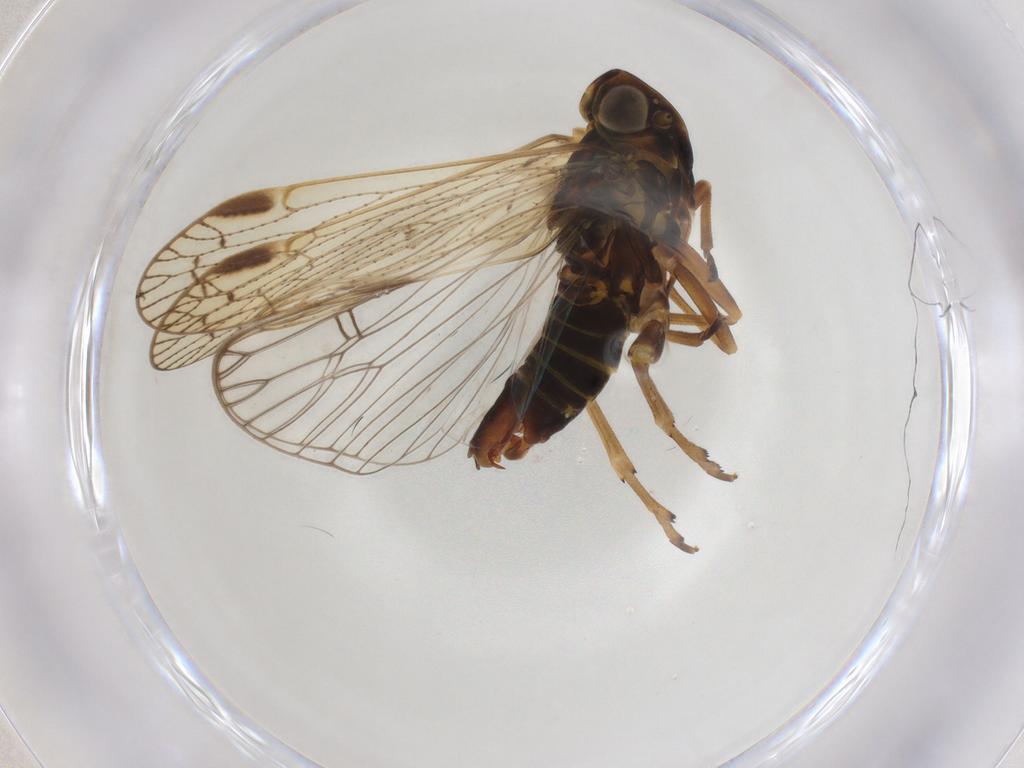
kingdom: Animalia
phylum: Arthropoda
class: Insecta
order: Hemiptera
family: Cixiidae
